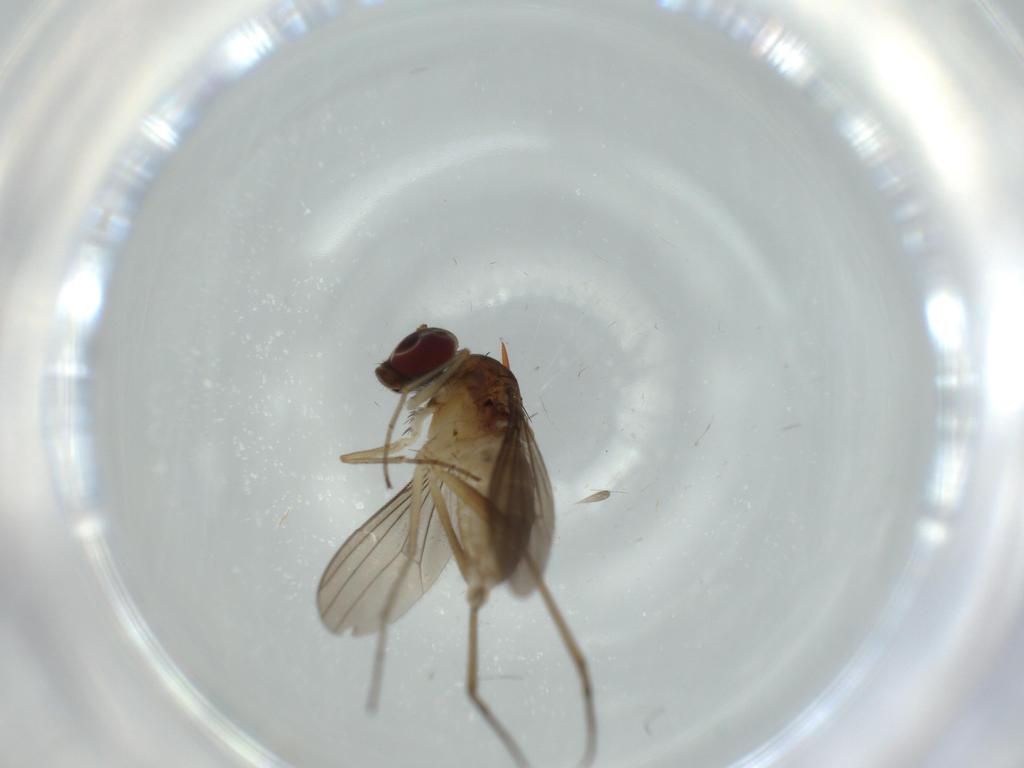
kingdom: Animalia
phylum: Arthropoda
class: Insecta
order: Diptera
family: Dolichopodidae
